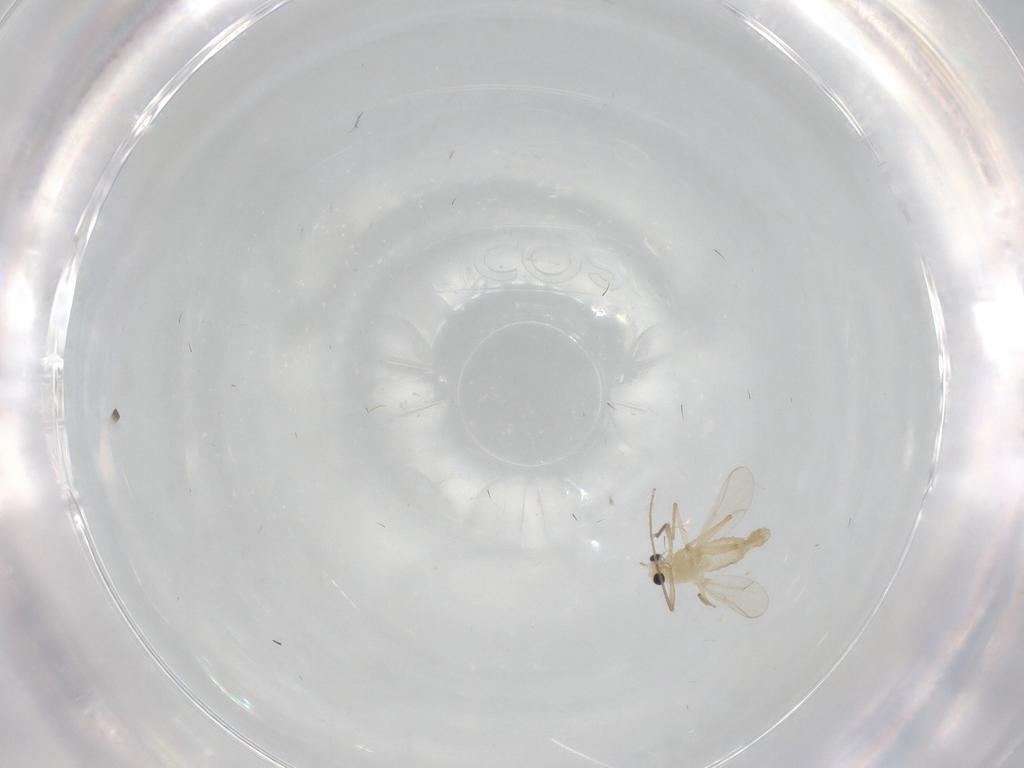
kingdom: Animalia
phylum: Arthropoda
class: Insecta
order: Diptera
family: Chironomidae
